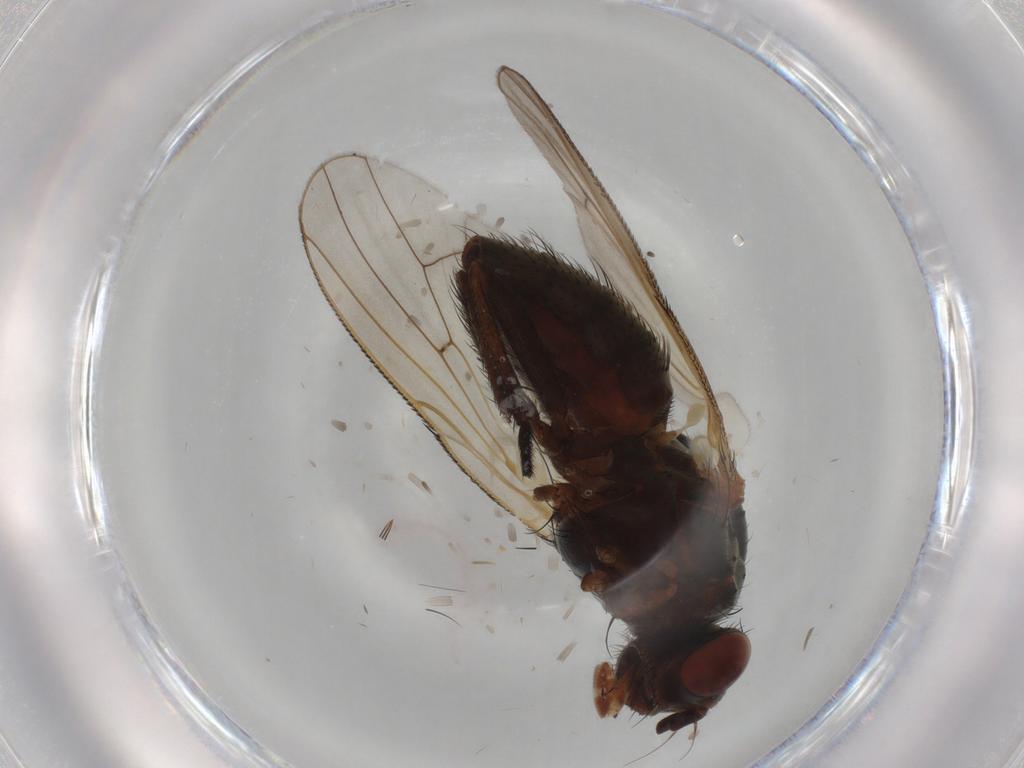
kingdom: Animalia
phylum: Arthropoda
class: Insecta
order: Diptera
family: Anthomyiidae
